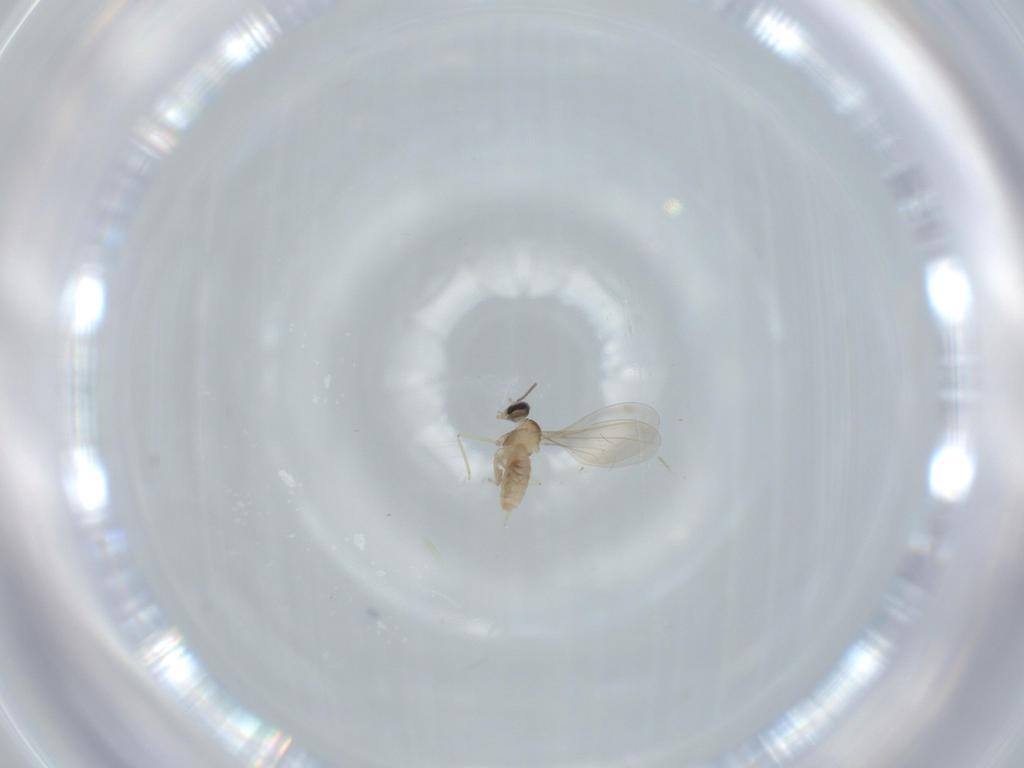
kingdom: Animalia
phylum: Arthropoda
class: Insecta
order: Diptera
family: Cecidomyiidae
